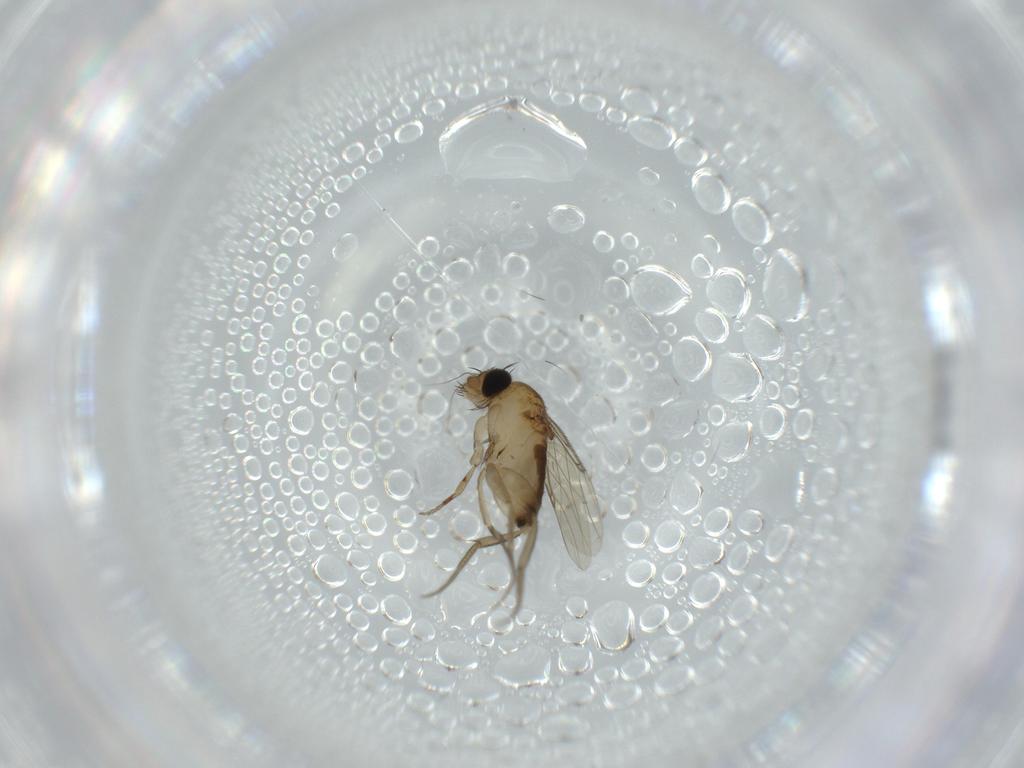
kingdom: Animalia
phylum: Arthropoda
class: Insecta
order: Diptera
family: Phoridae
